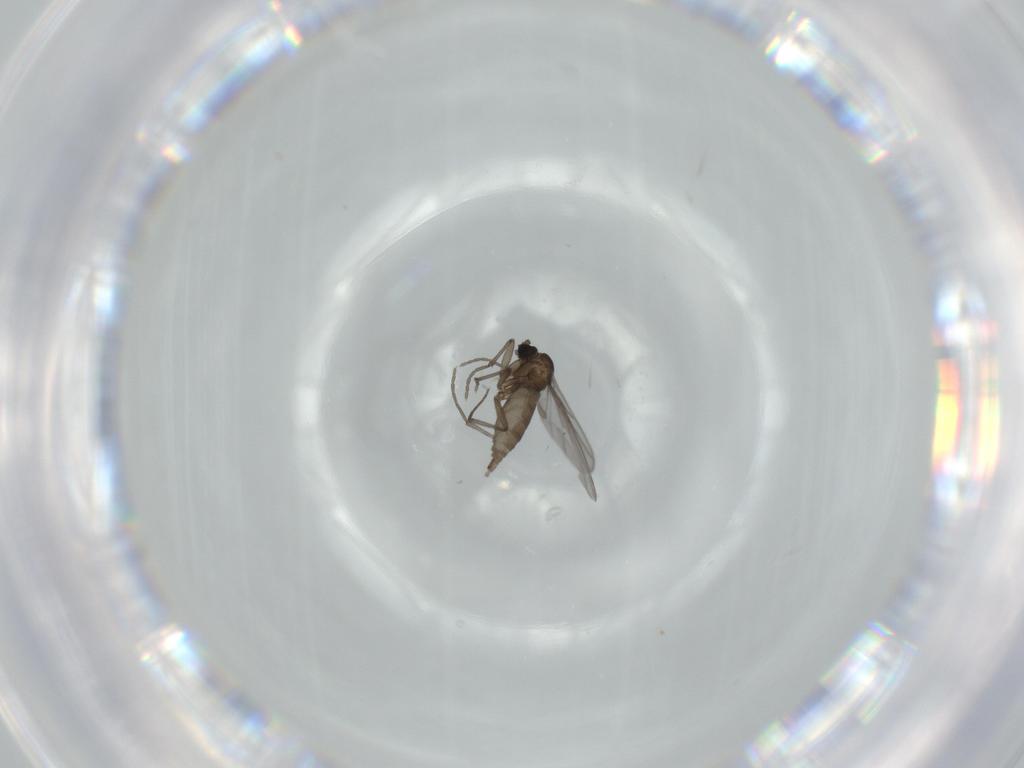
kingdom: Animalia
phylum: Arthropoda
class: Insecta
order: Diptera
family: Sciaridae
